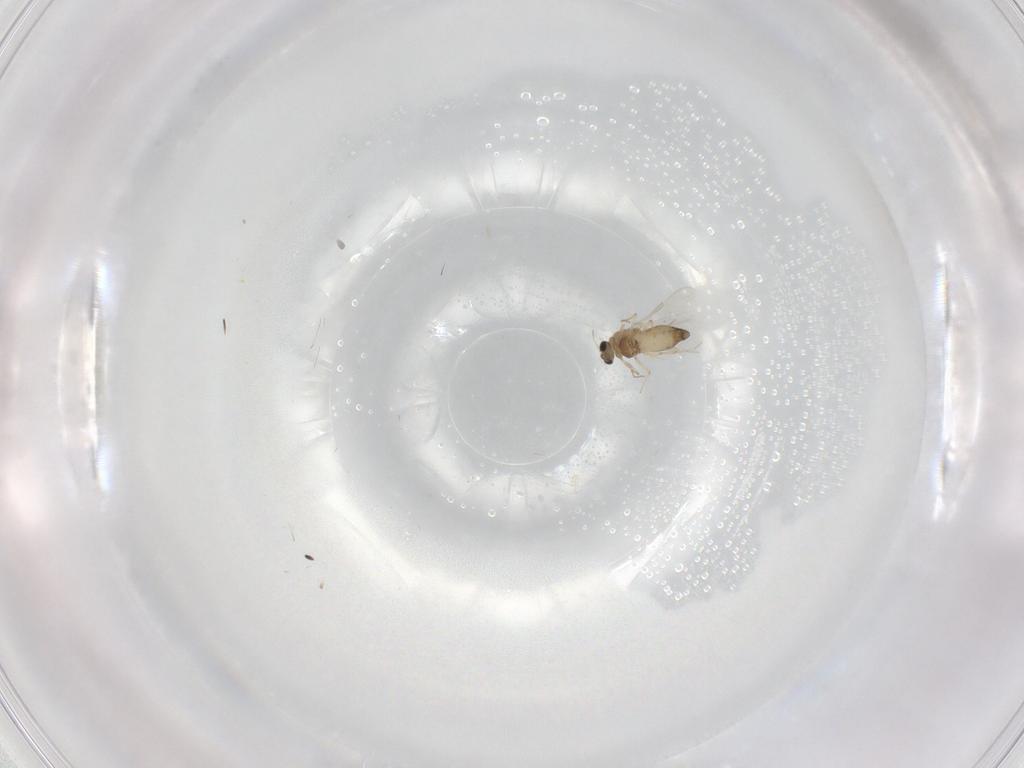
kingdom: Animalia
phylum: Arthropoda
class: Insecta
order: Diptera
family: Chironomidae
